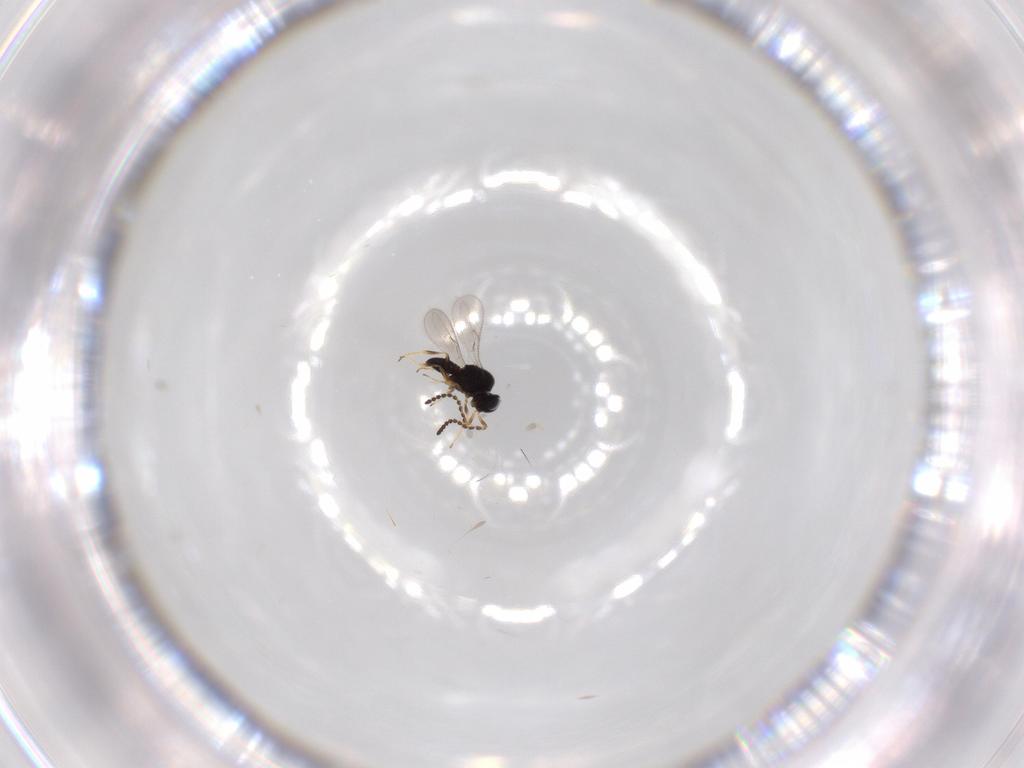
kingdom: Animalia
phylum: Arthropoda
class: Insecta
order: Hymenoptera
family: Scelionidae
